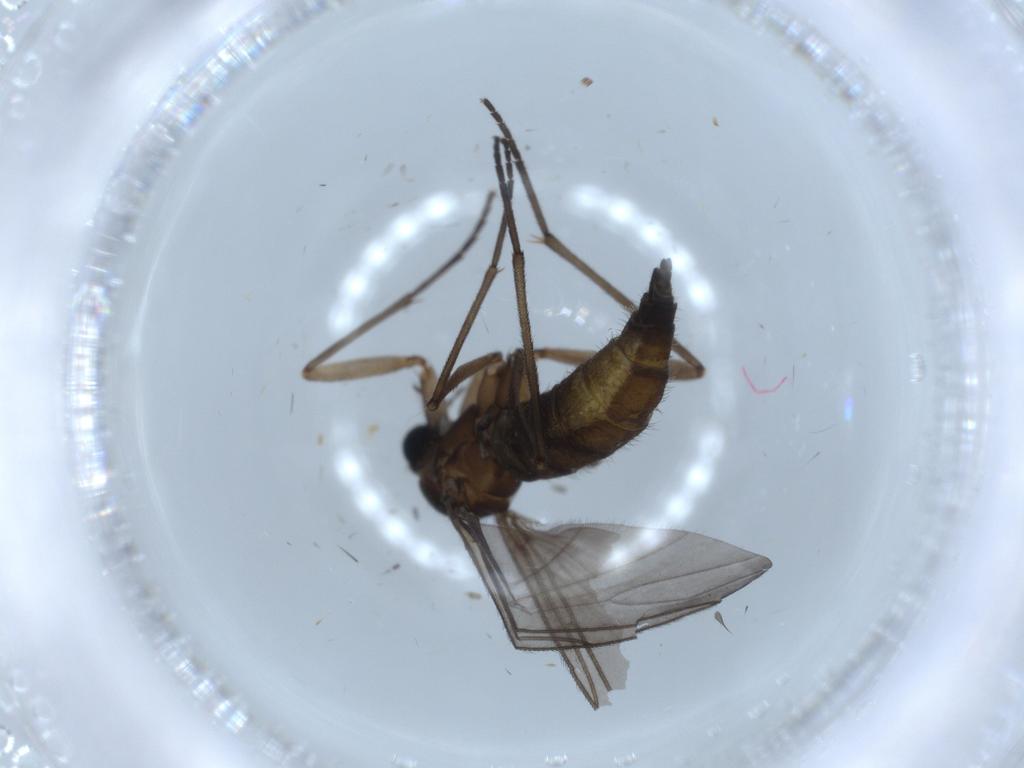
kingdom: Animalia
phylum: Arthropoda
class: Insecta
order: Diptera
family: Sciaridae
